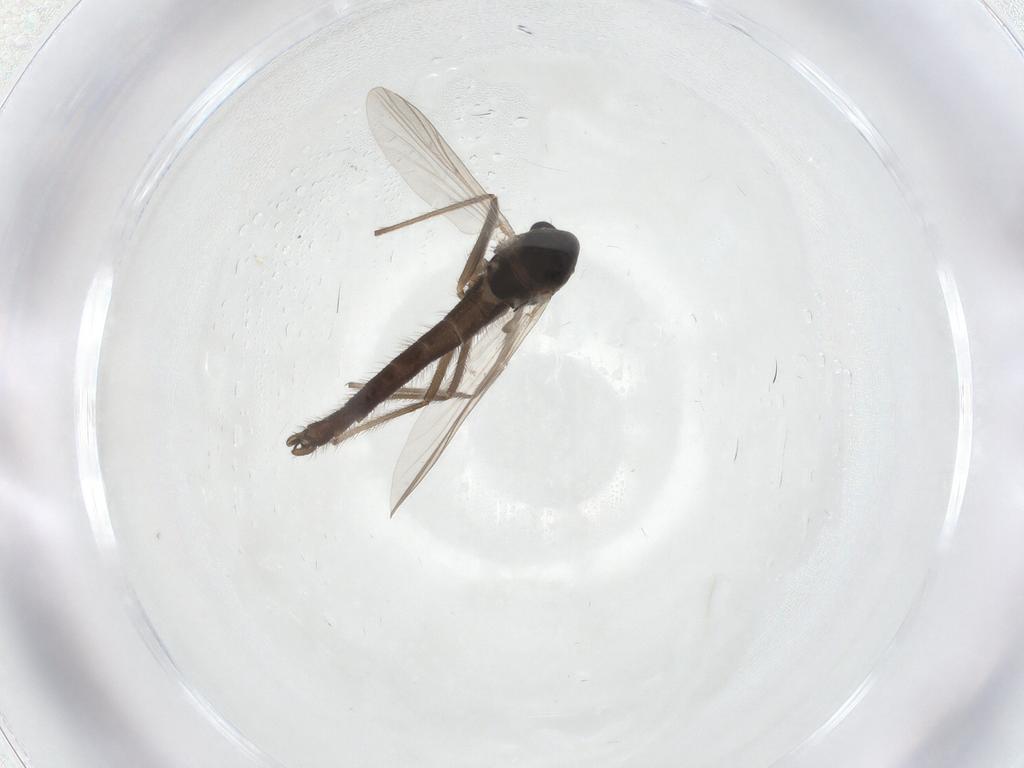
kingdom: Animalia
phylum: Arthropoda
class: Insecta
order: Diptera
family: Chironomidae
